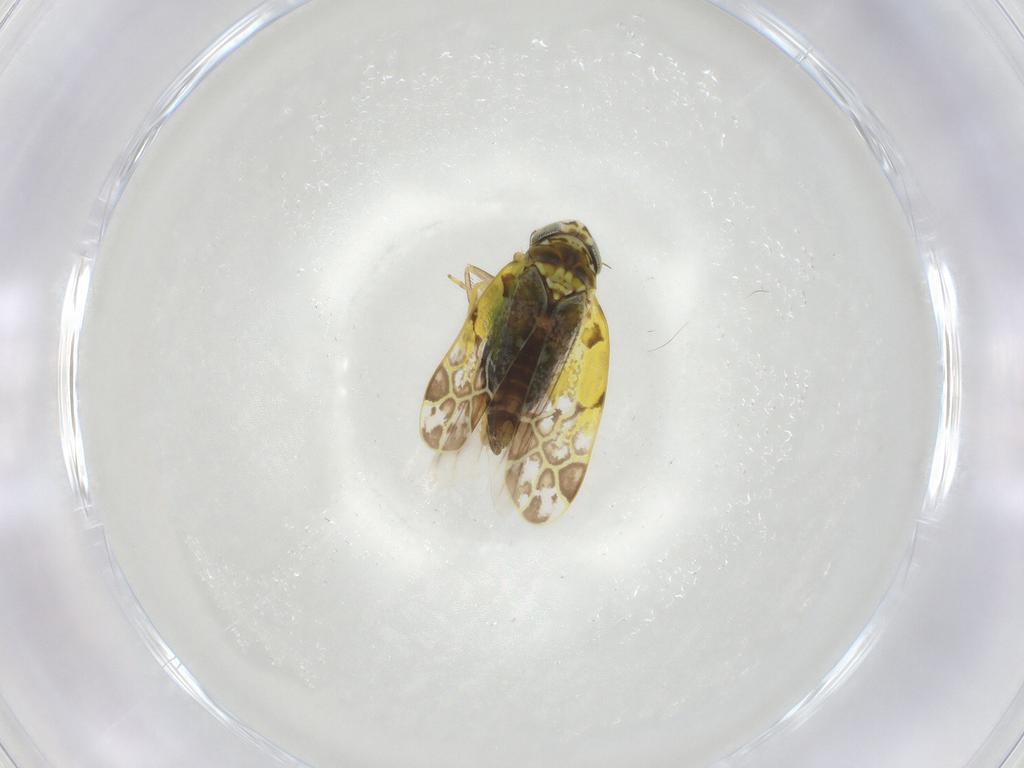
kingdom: Animalia
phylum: Arthropoda
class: Insecta
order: Hemiptera
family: Cicadellidae
